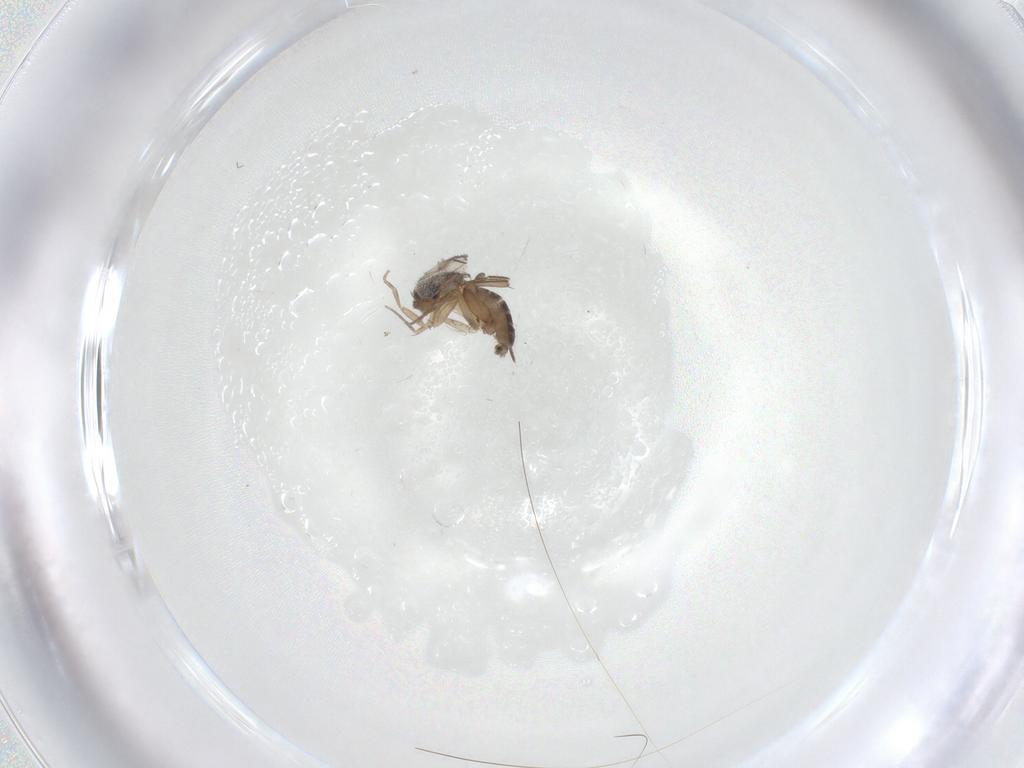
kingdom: Animalia
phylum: Arthropoda
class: Insecta
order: Diptera
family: Phoridae
